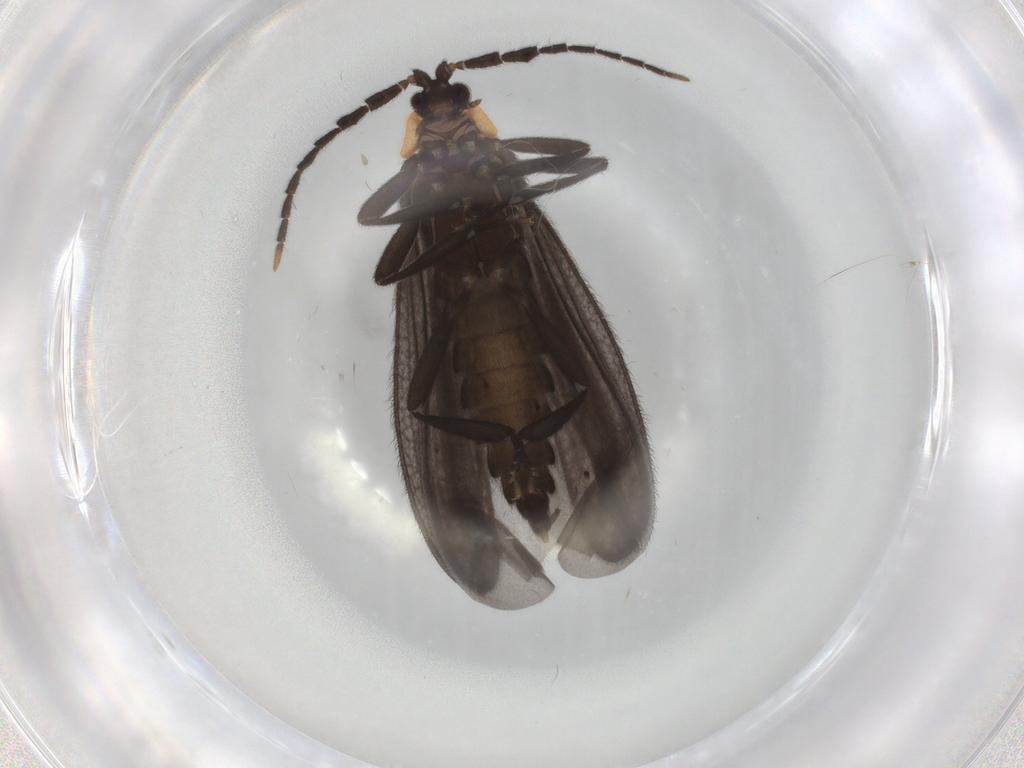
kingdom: Animalia
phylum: Arthropoda
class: Insecta
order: Coleoptera
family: Lycidae
